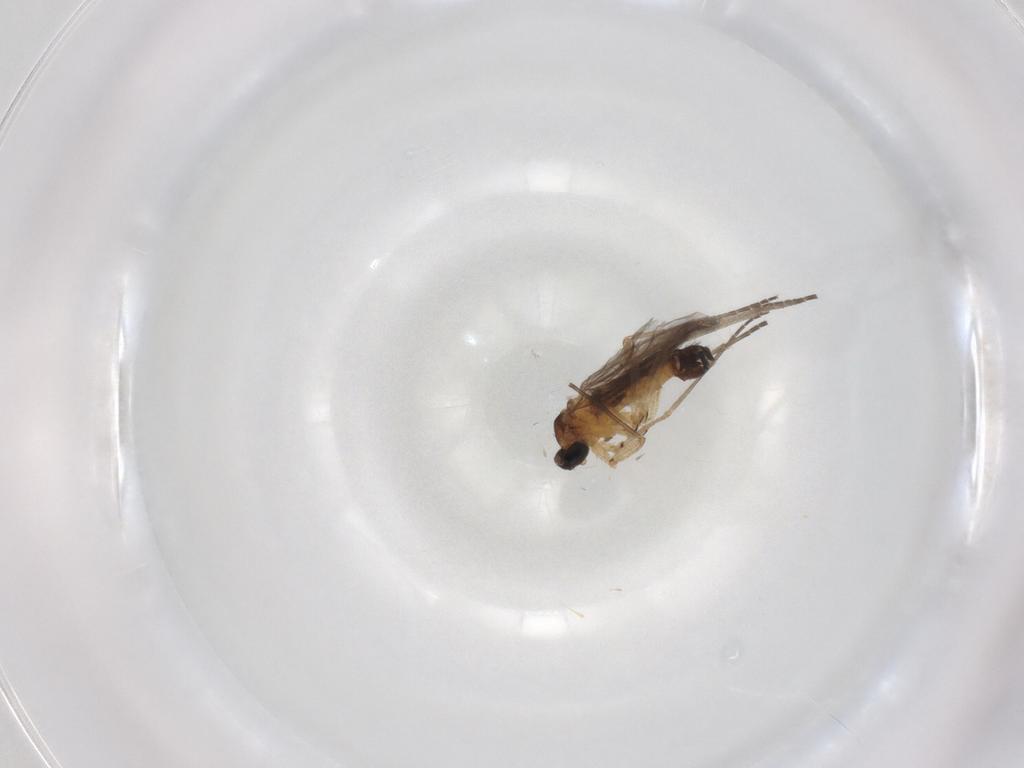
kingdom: Animalia
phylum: Arthropoda
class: Insecta
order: Diptera
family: Sciaridae
